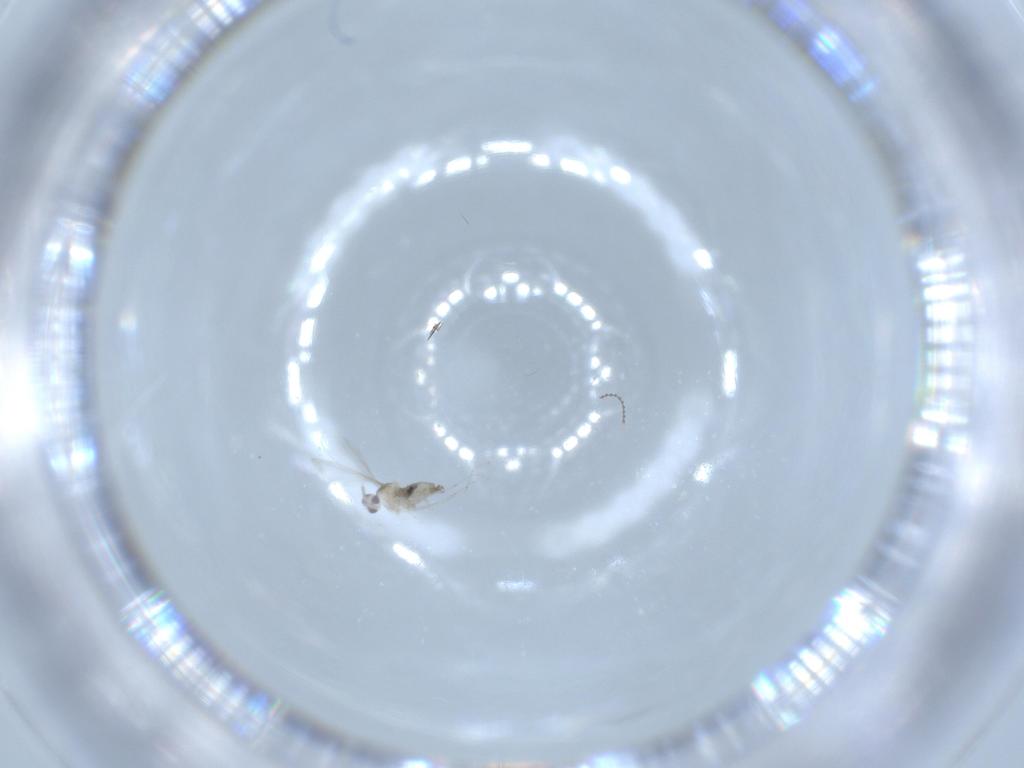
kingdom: Animalia
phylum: Arthropoda
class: Insecta
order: Diptera
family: Cecidomyiidae
